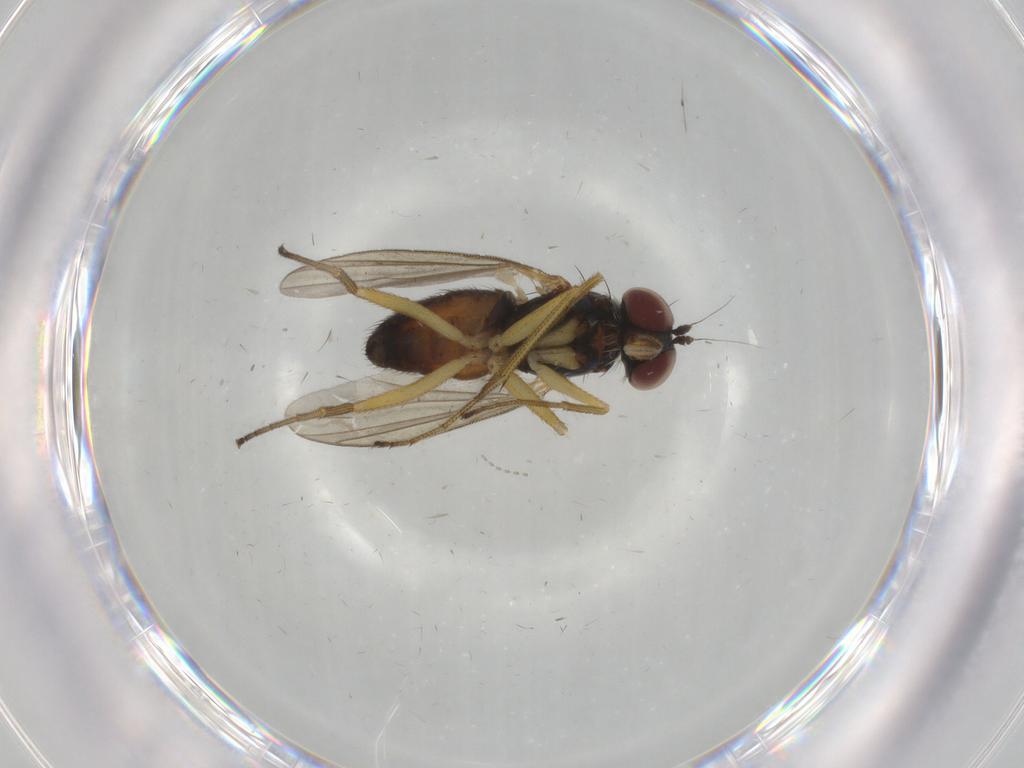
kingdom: Animalia
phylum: Arthropoda
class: Insecta
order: Diptera
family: Dolichopodidae
